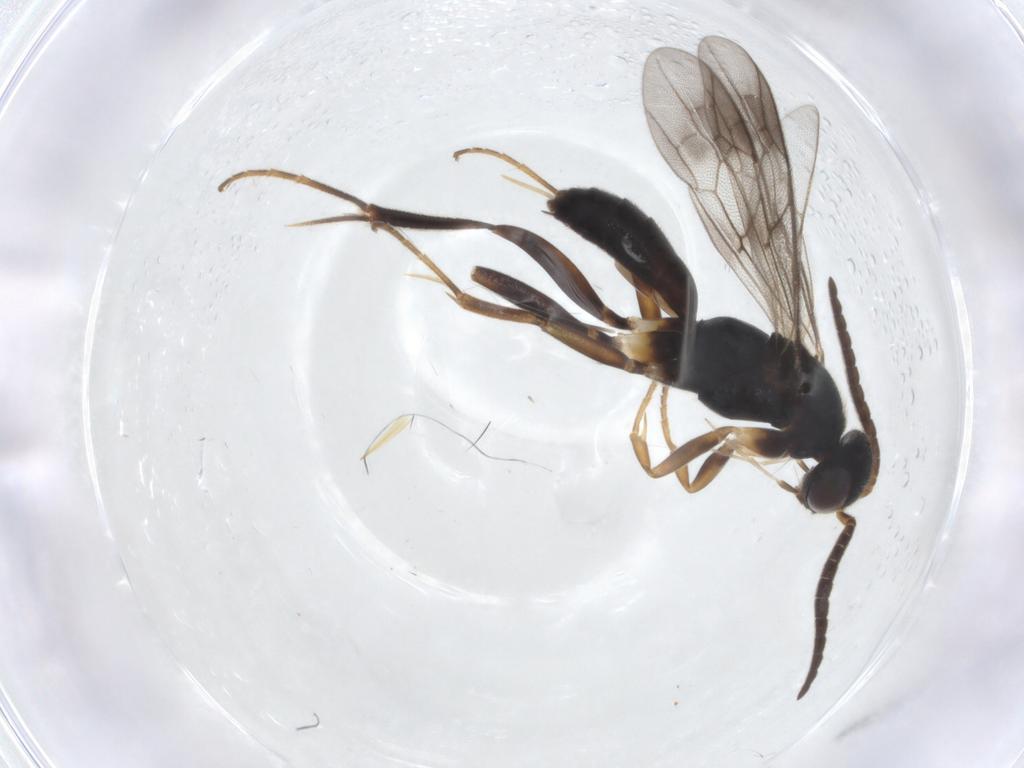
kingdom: Animalia
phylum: Arthropoda
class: Insecta
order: Hymenoptera
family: Pompilidae
